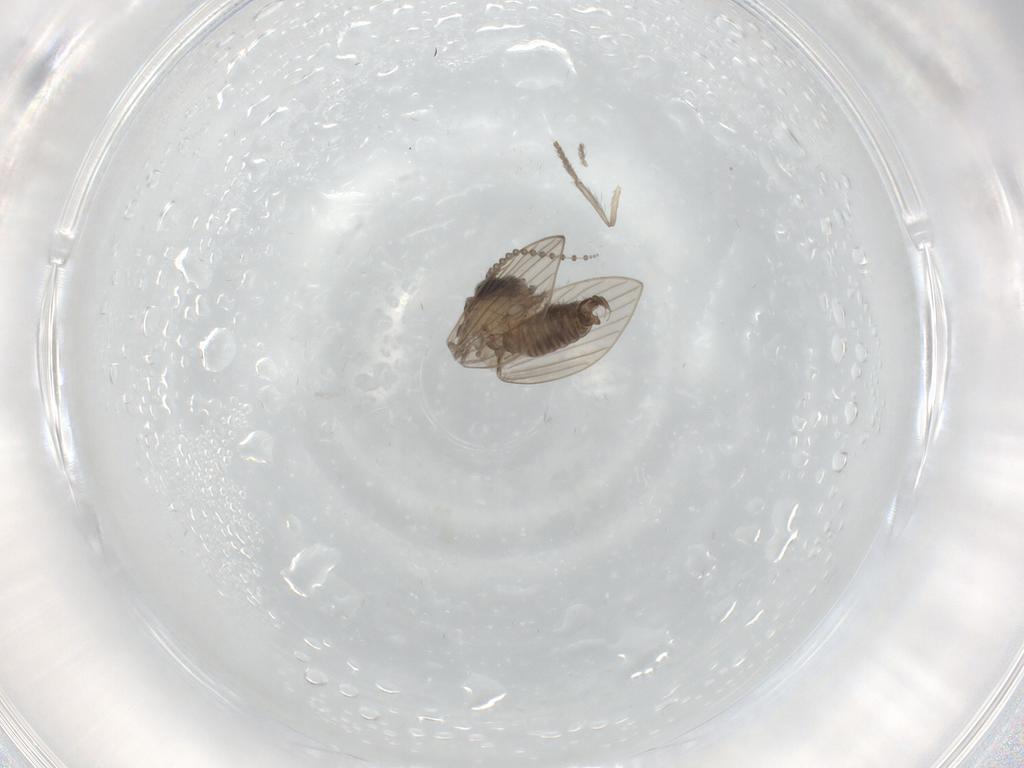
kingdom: Animalia
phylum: Arthropoda
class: Insecta
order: Diptera
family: Psychodidae
